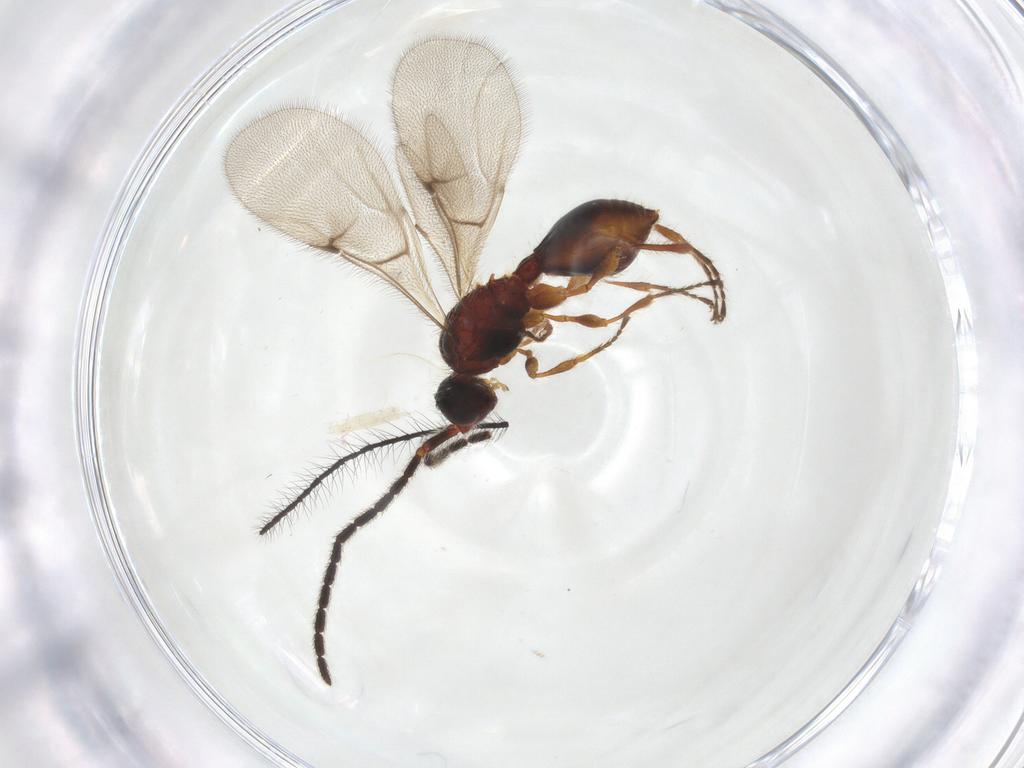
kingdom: Animalia
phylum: Arthropoda
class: Insecta
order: Hymenoptera
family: Diapriidae
